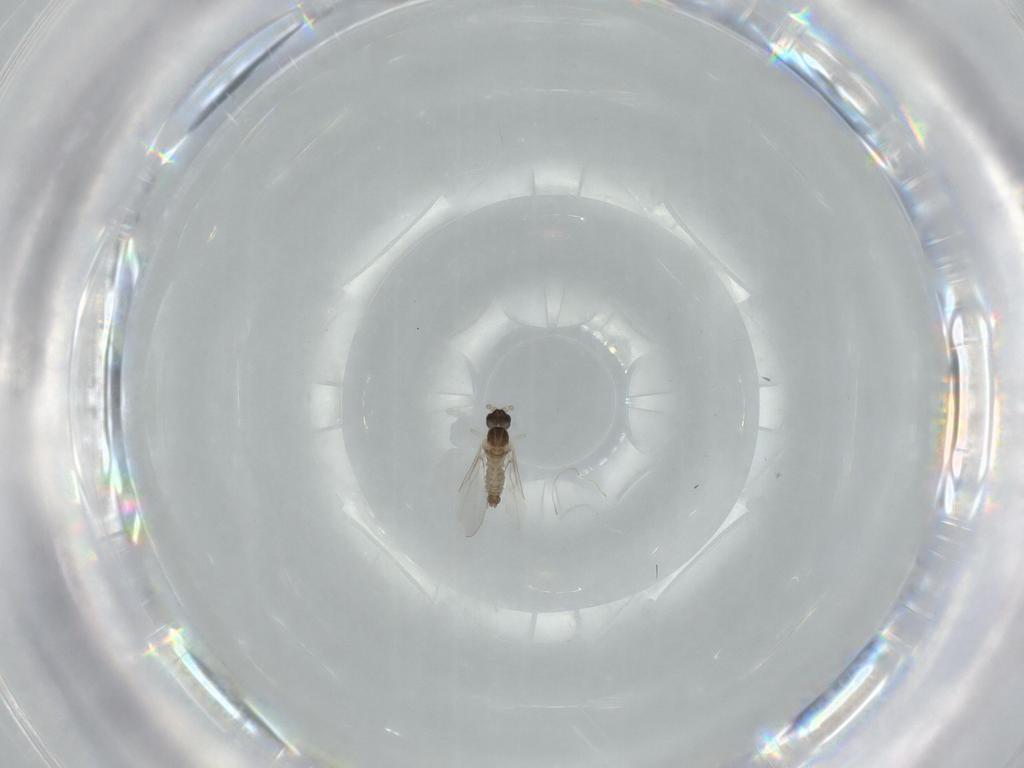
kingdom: Animalia
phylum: Arthropoda
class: Insecta
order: Diptera
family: Cecidomyiidae
